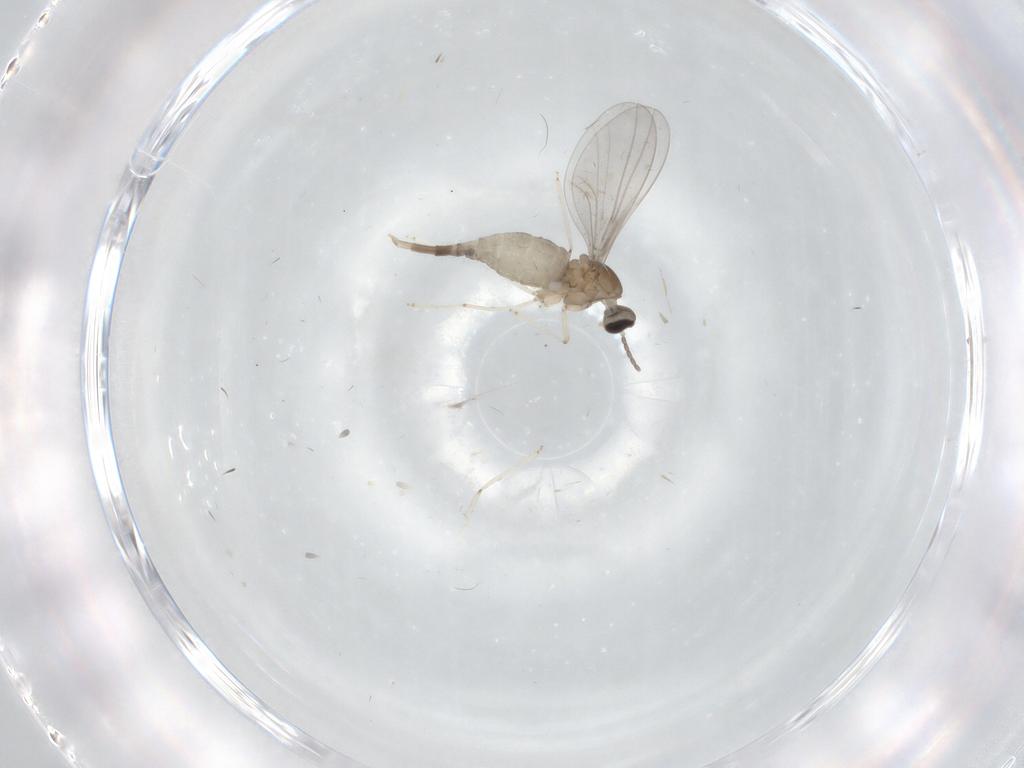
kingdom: Animalia
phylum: Arthropoda
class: Insecta
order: Diptera
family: Cecidomyiidae
